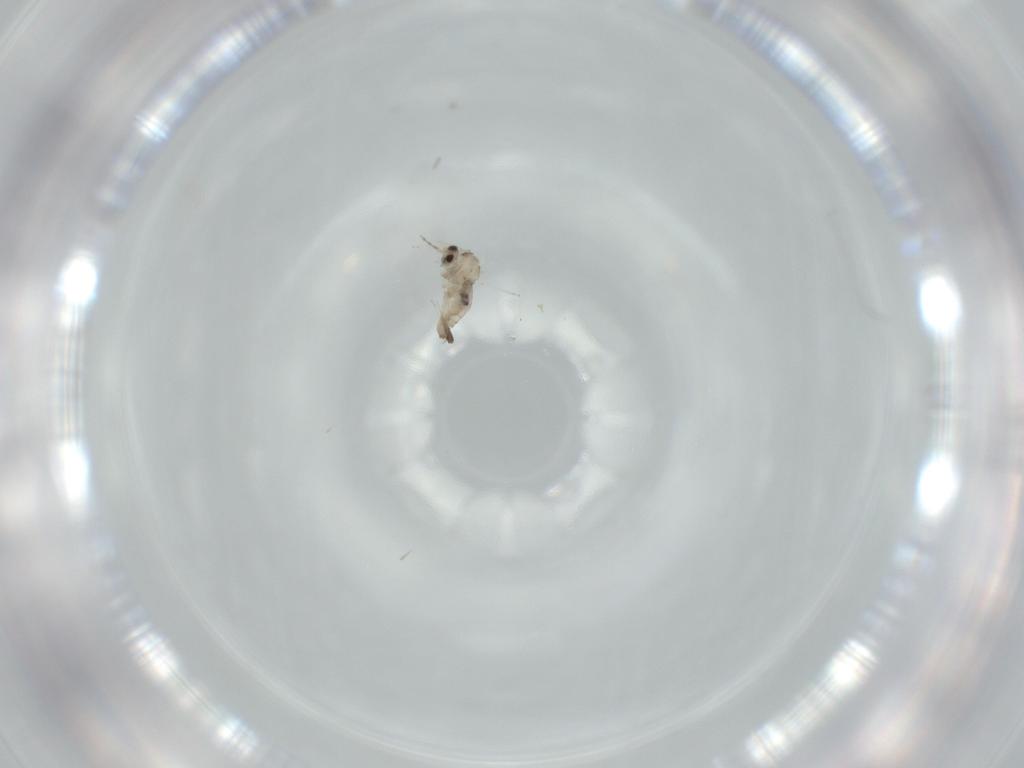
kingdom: Animalia
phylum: Arthropoda
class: Insecta
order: Diptera
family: Cecidomyiidae
